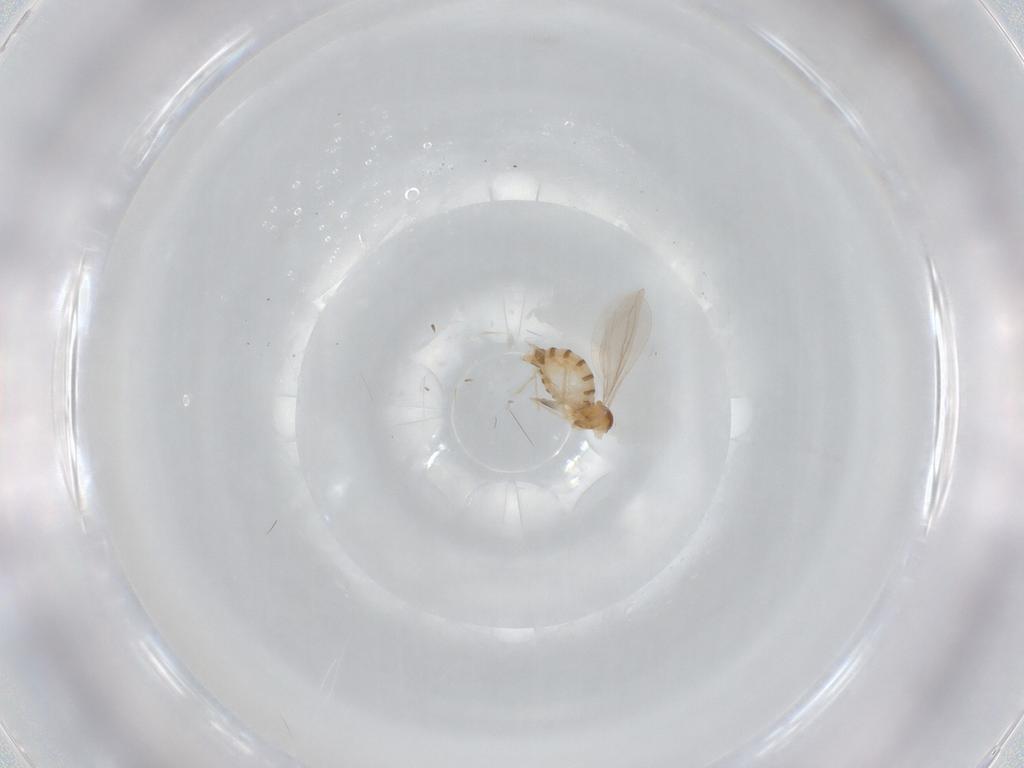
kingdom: Animalia
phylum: Arthropoda
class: Insecta
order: Diptera
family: Cecidomyiidae
